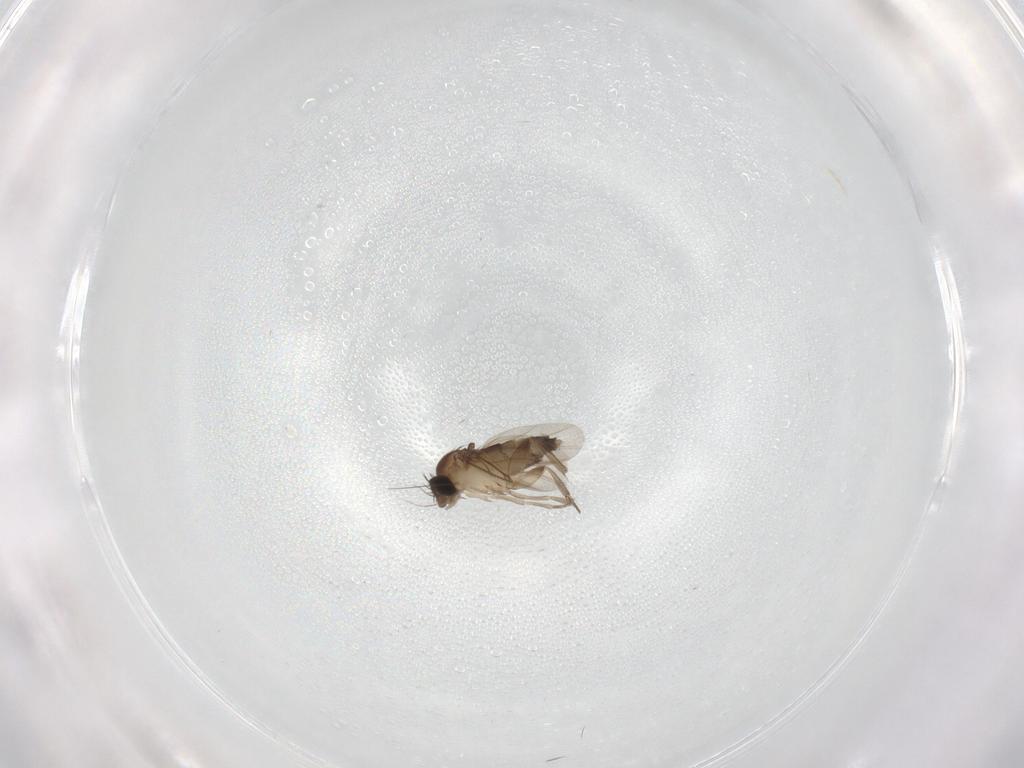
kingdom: Animalia
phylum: Arthropoda
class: Insecta
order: Diptera
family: Phoridae
